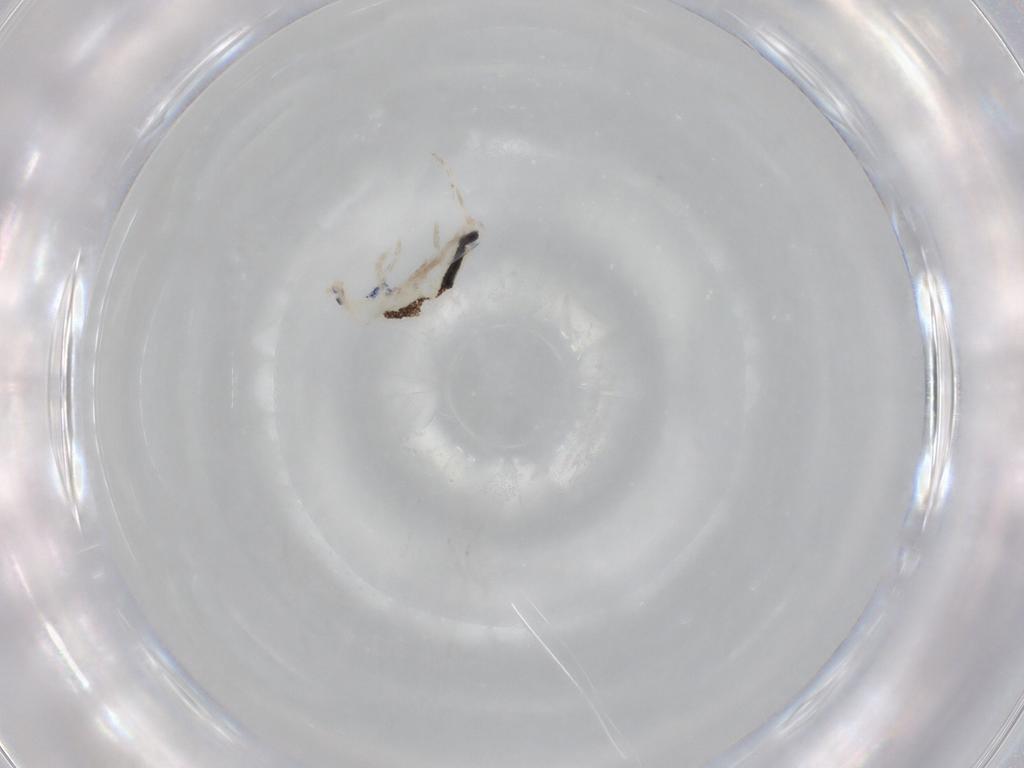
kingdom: Animalia
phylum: Arthropoda
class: Collembola
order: Entomobryomorpha
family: Entomobryidae
